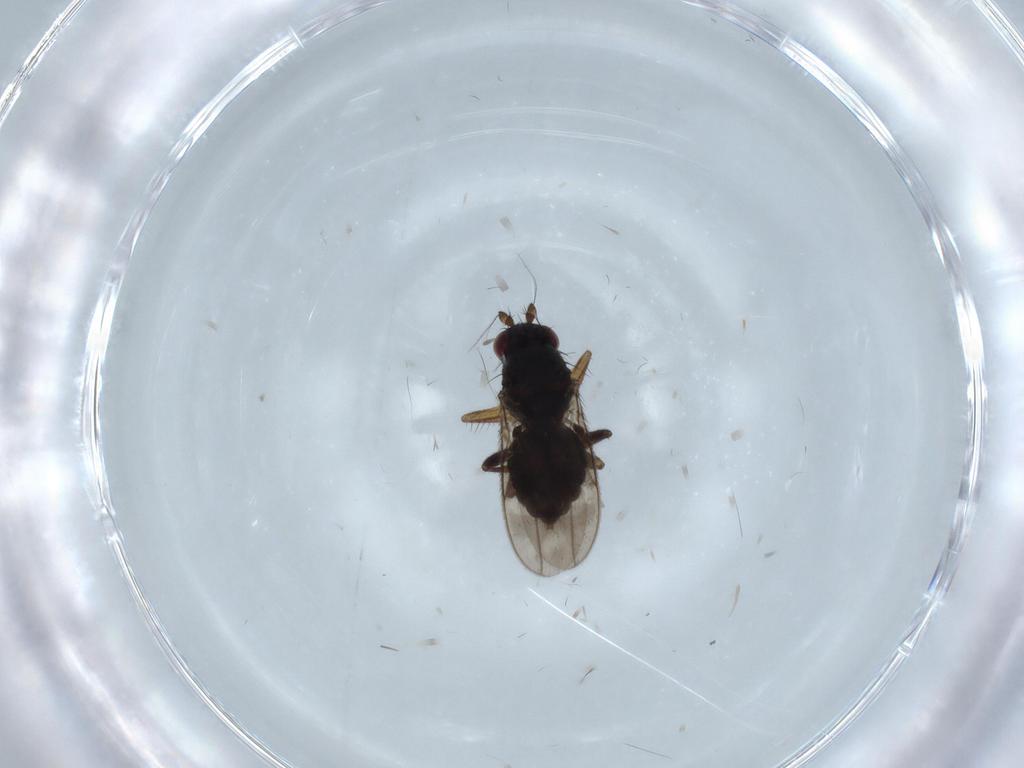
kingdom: Animalia
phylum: Arthropoda
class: Insecta
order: Diptera
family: Sphaeroceridae
